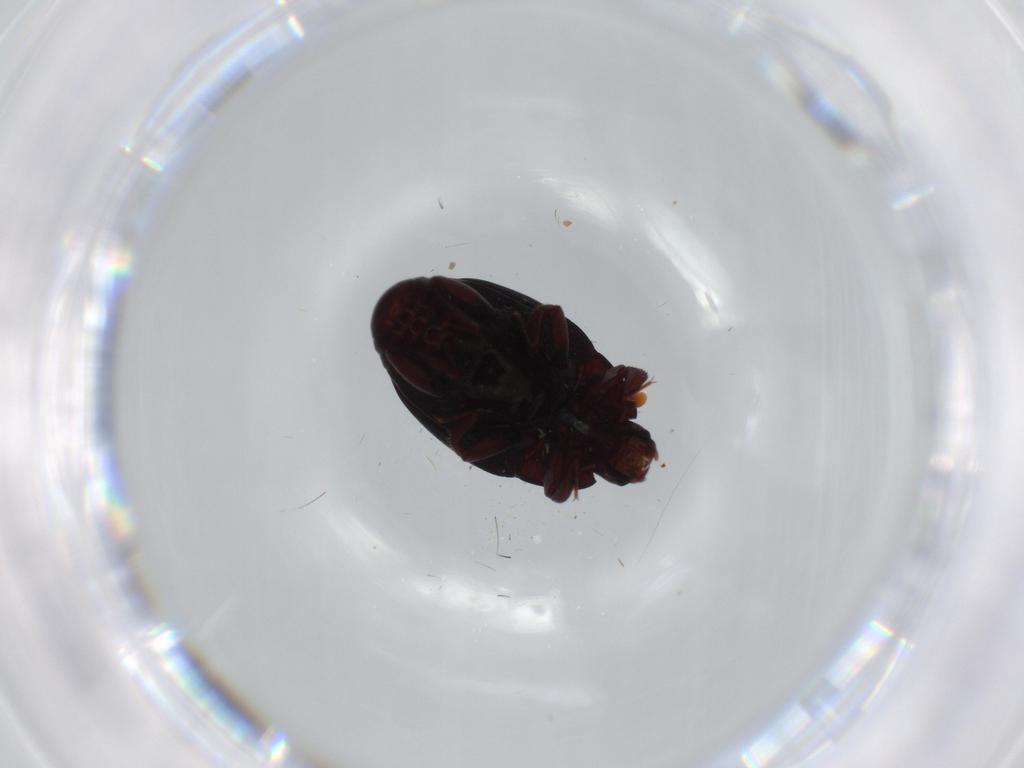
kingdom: Animalia
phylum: Arthropoda
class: Insecta
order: Coleoptera
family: Histeridae
